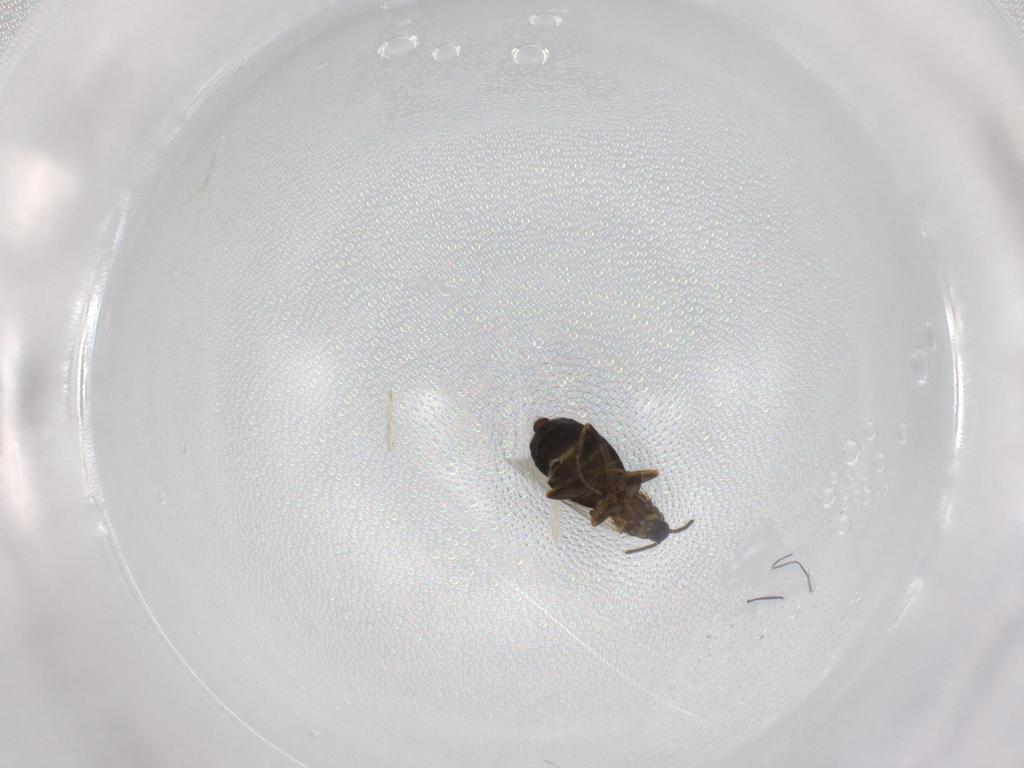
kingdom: Animalia
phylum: Arthropoda
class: Insecta
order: Diptera
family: Scatopsidae
